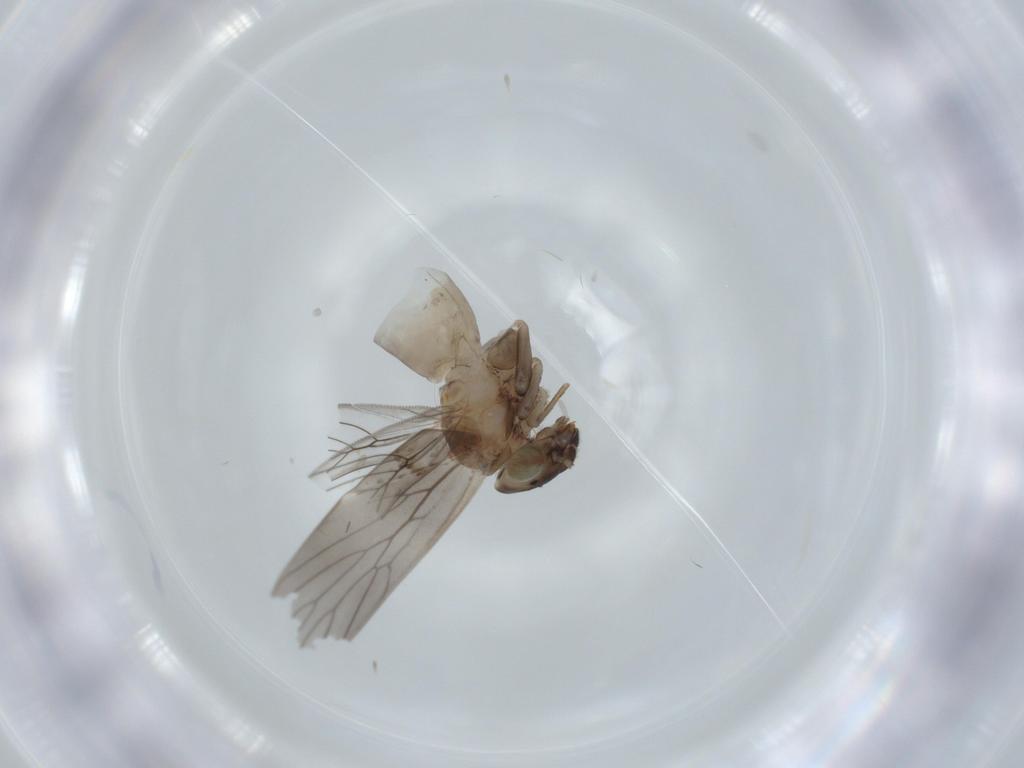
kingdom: Animalia
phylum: Arthropoda
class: Insecta
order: Psocodea
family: Lepidopsocidae
